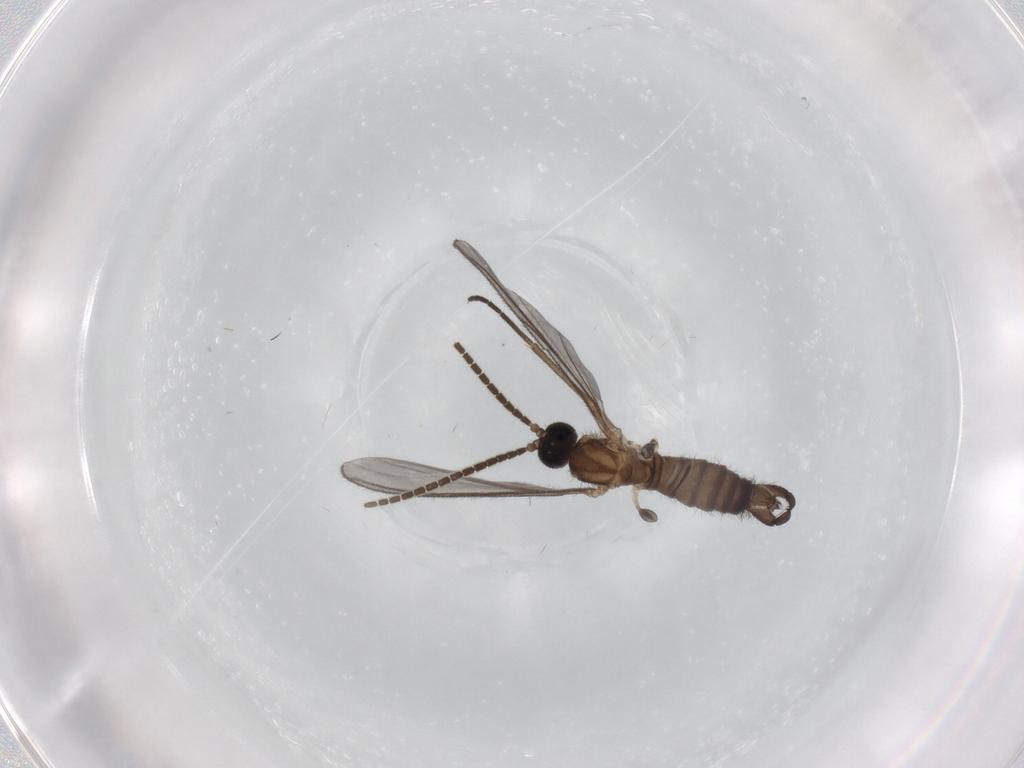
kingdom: Animalia
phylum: Arthropoda
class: Insecta
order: Diptera
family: Sciaridae
